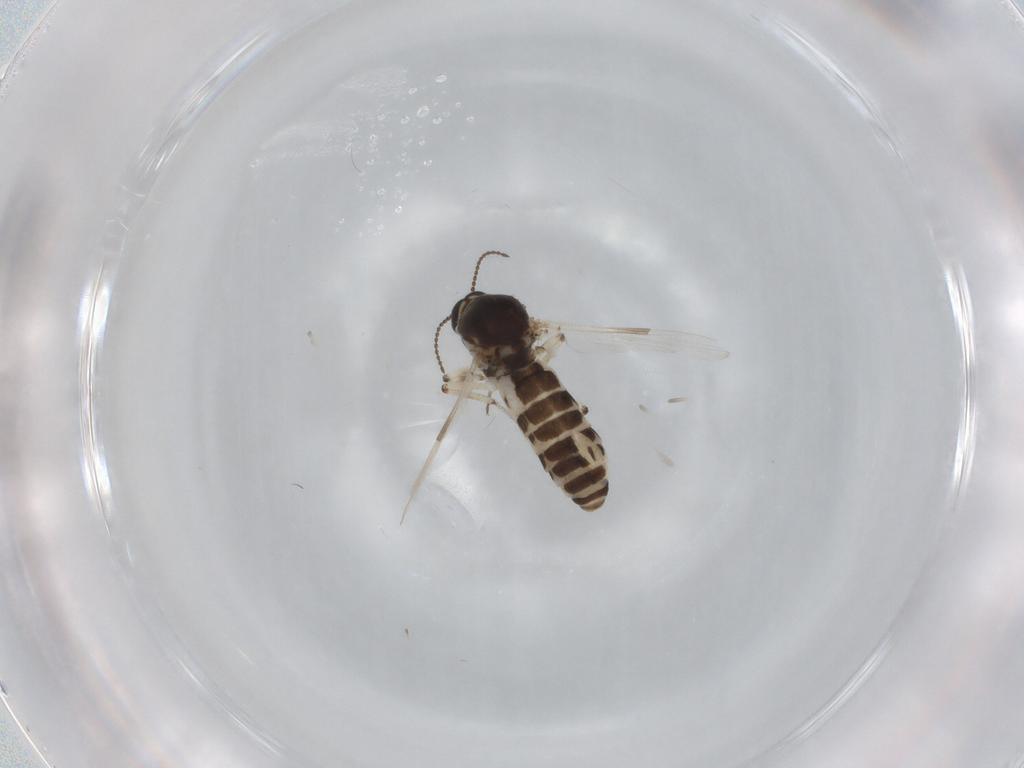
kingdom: Animalia
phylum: Arthropoda
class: Insecta
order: Diptera
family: Ceratopogonidae
